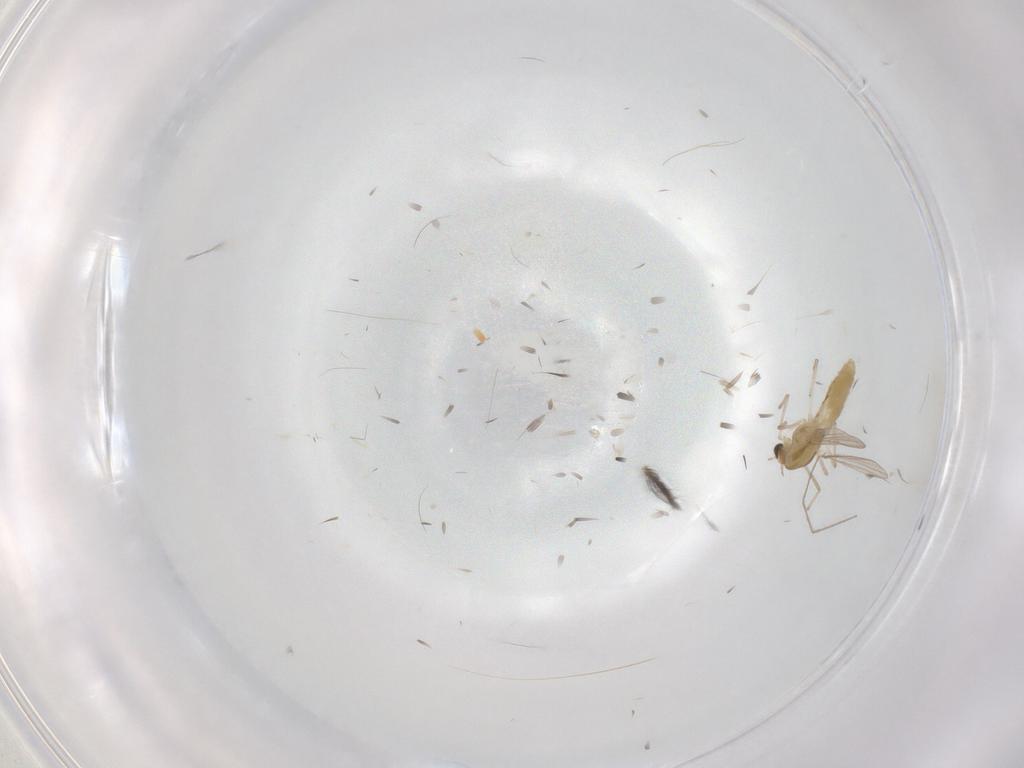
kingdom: Animalia
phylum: Arthropoda
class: Insecta
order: Diptera
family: Chironomidae
